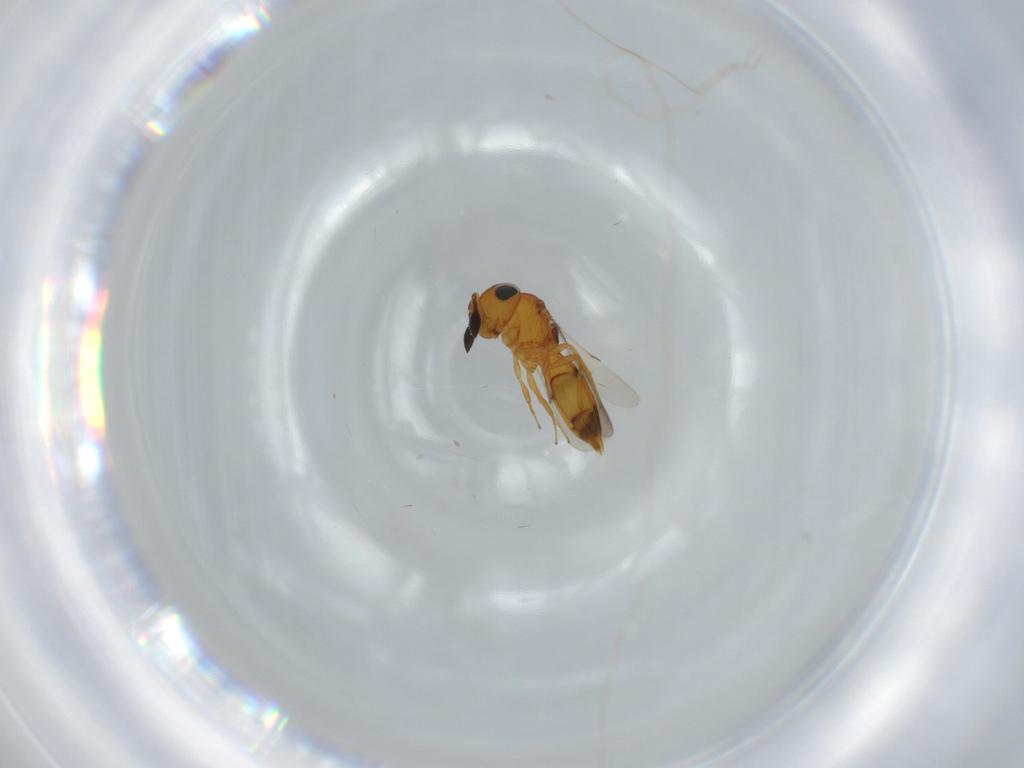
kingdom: Animalia
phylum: Arthropoda
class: Insecta
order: Hymenoptera
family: Scelionidae
